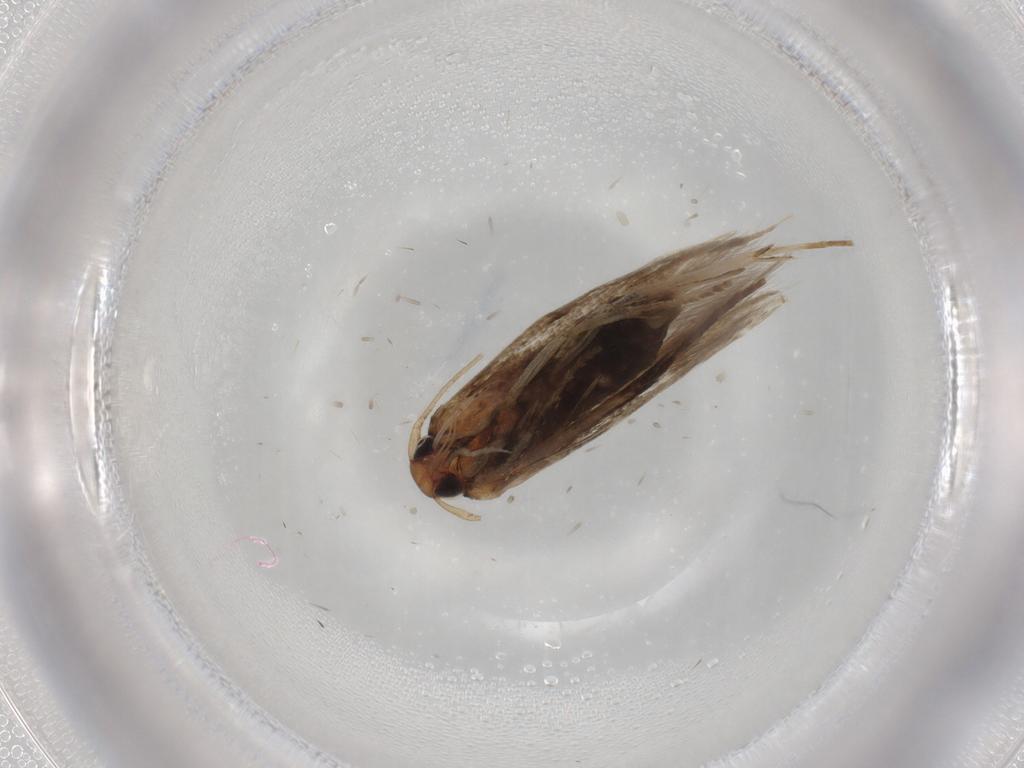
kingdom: Animalia
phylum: Arthropoda
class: Insecta
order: Lepidoptera
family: Cosmopterigidae
